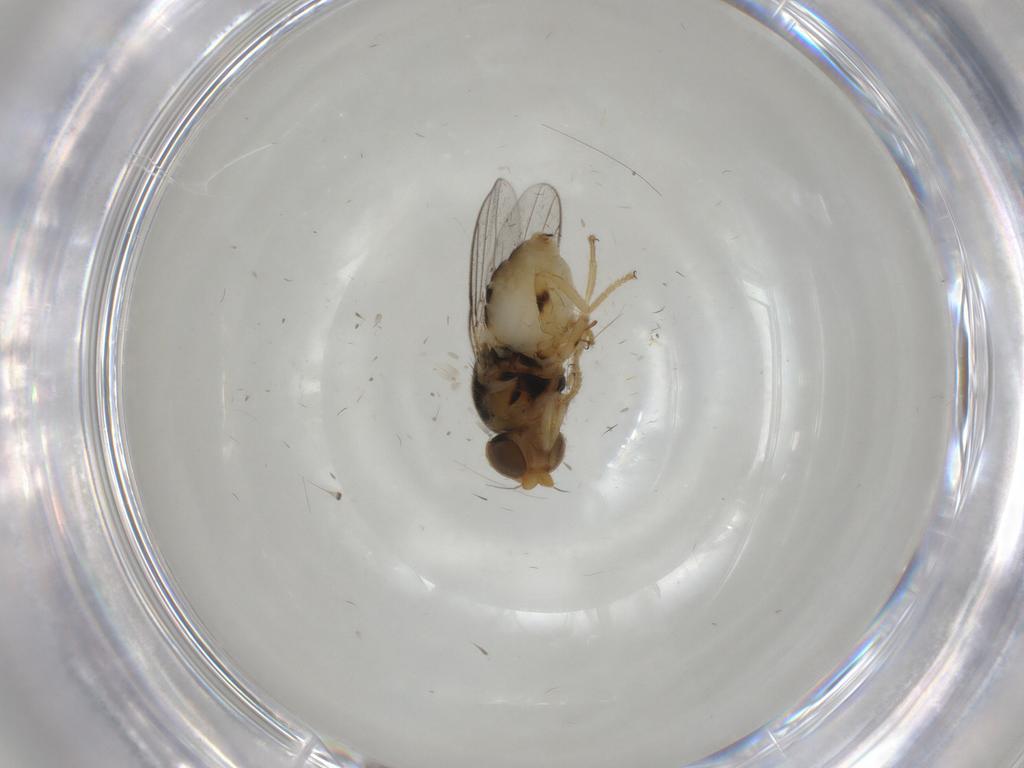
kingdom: Animalia
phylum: Arthropoda
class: Insecta
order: Diptera
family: Chloropidae
